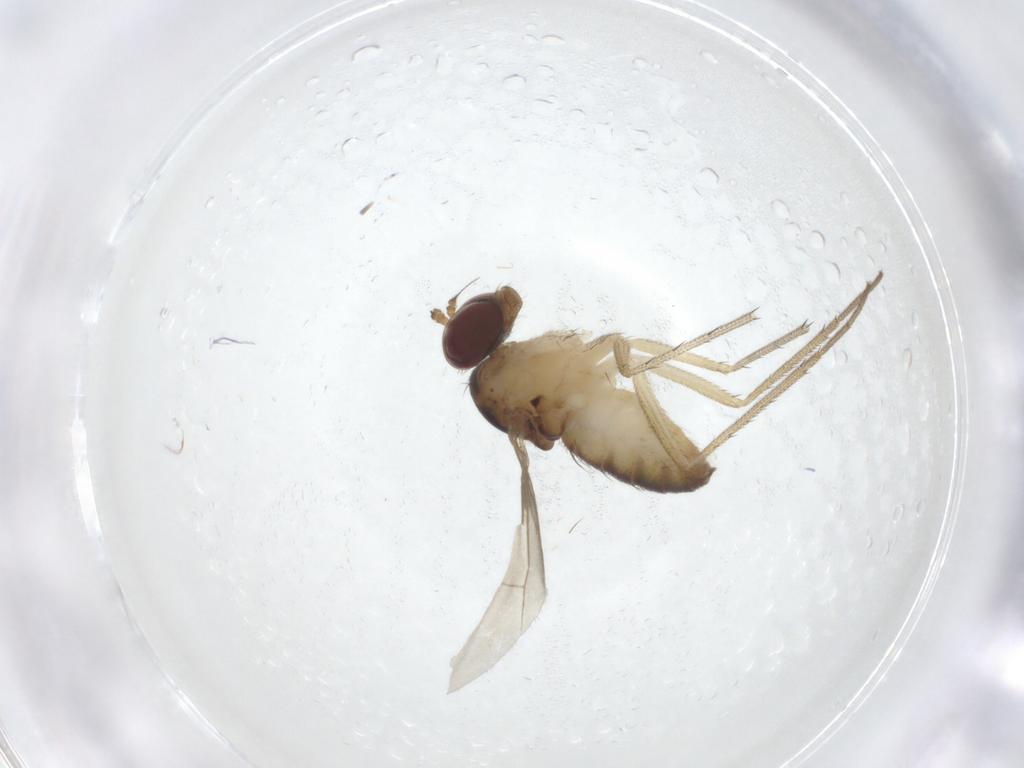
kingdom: Animalia
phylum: Arthropoda
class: Insecta
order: Diptera
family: Dolichopodidae
